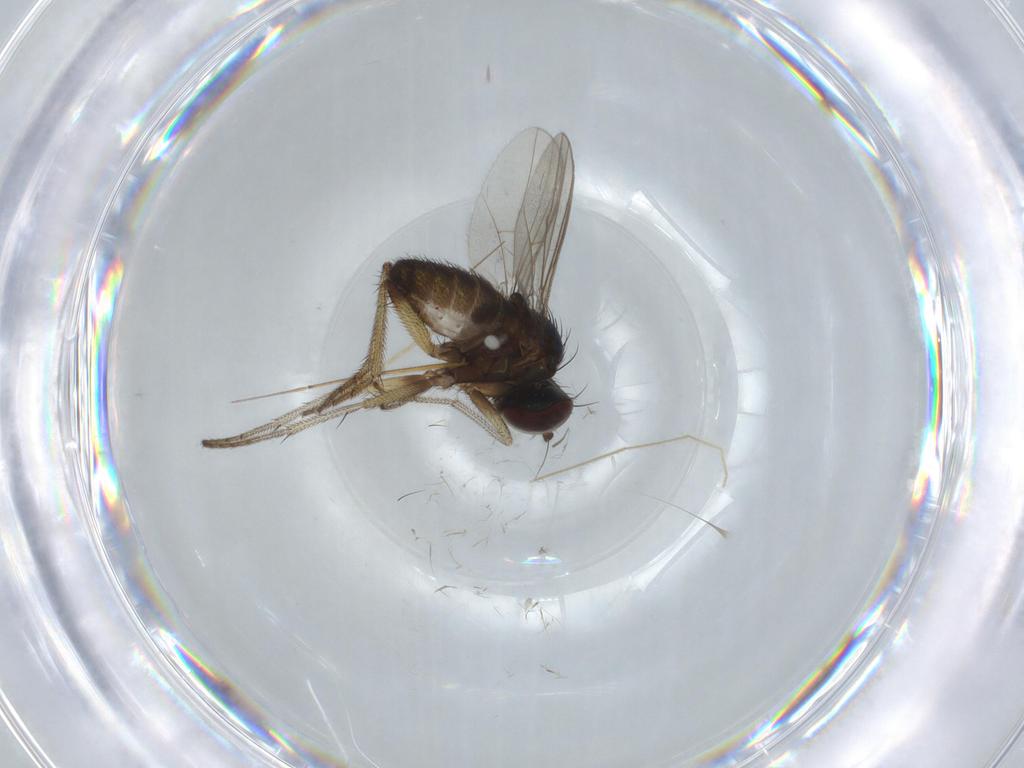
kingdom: Animalia
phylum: Arthropoda
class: Insecta
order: Diptera
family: Chironomidae
